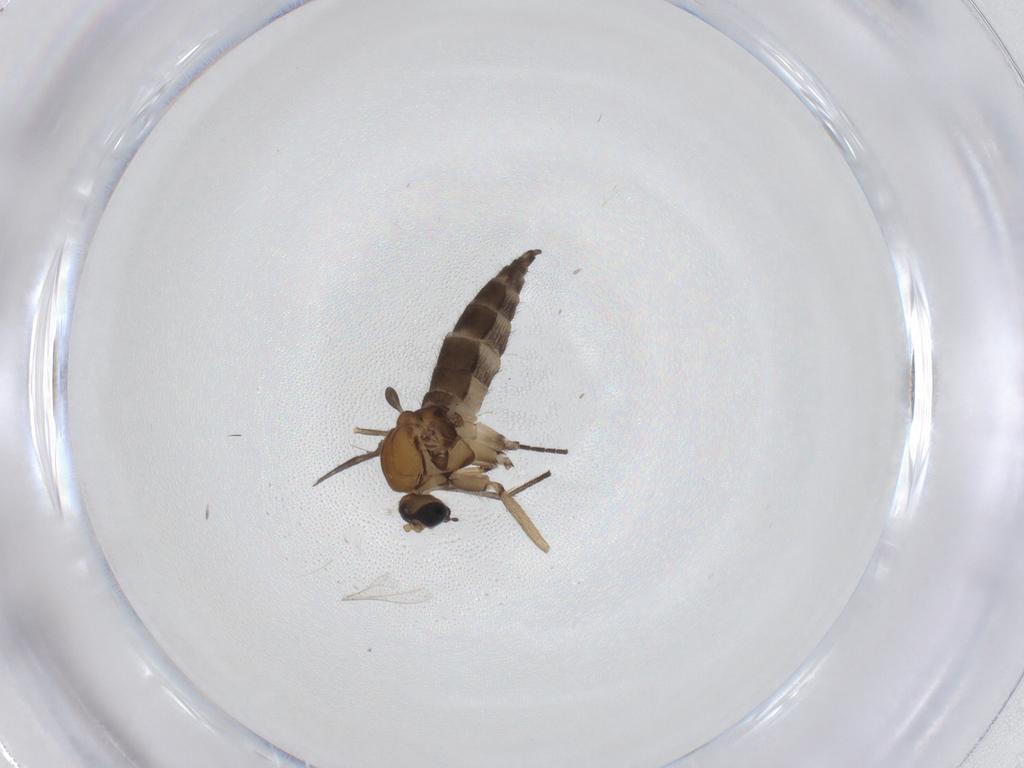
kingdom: Animalia
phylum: Arthropoda
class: Insecta
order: Diptera
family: Sciaridae
